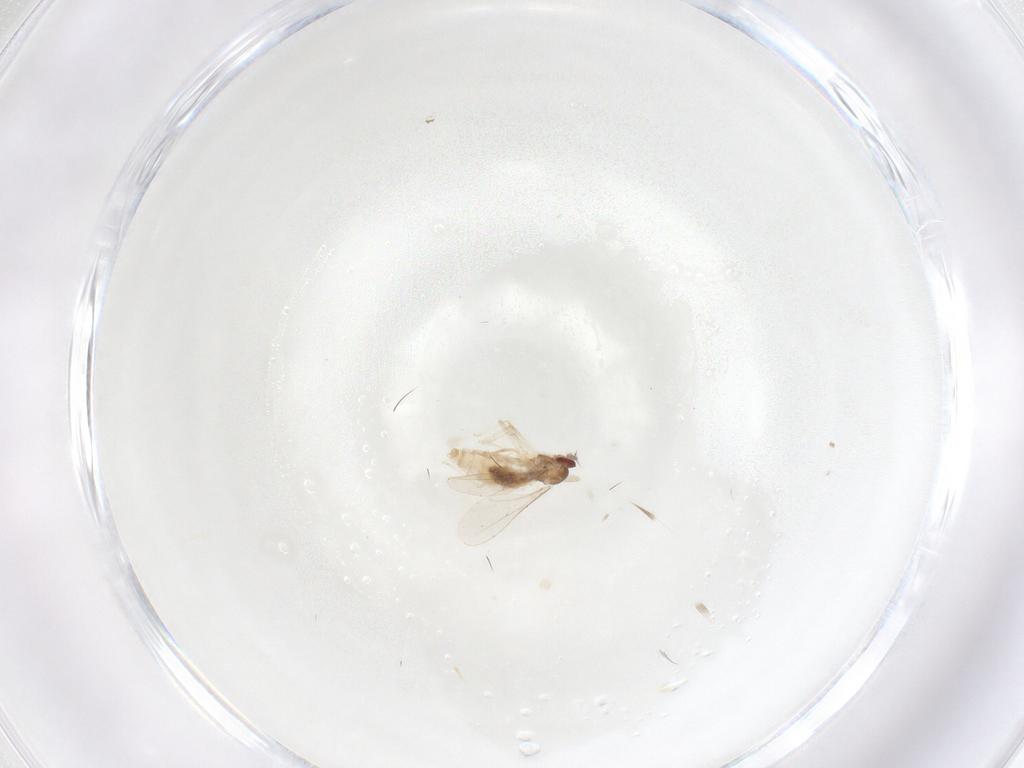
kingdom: Animalia
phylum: Arthropoda
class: Insecta
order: Diptera
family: Cecidomyiidae
